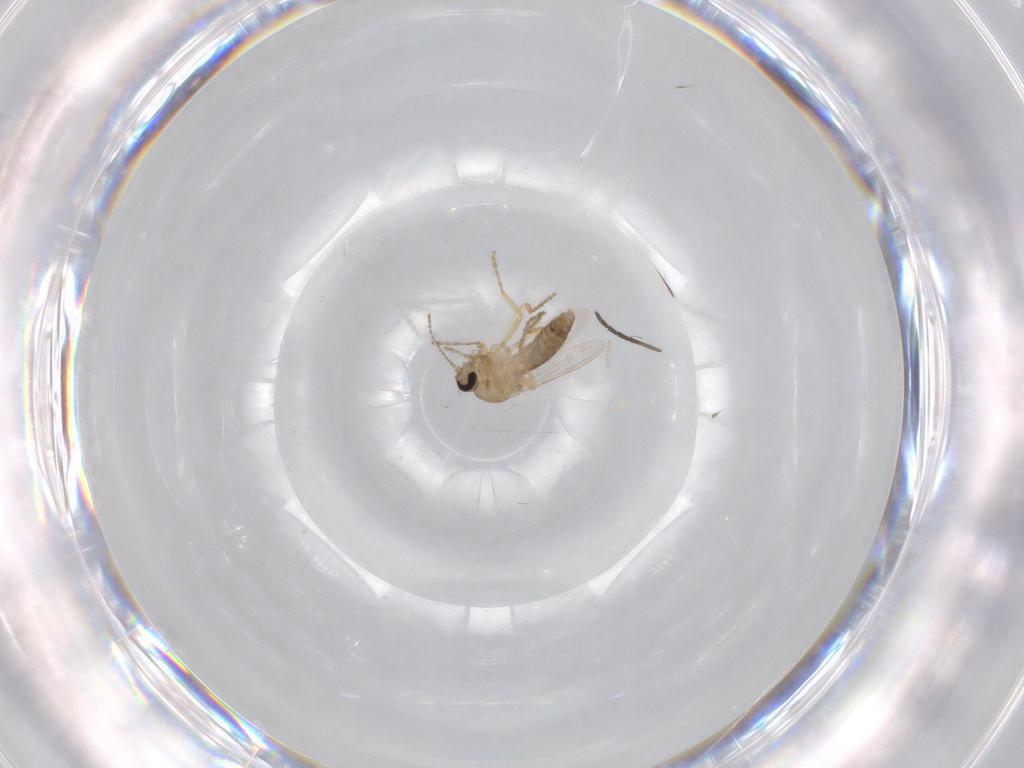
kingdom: Animalia
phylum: Arthropoda
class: Insecta
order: Diptera
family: Ceratopogonidae
